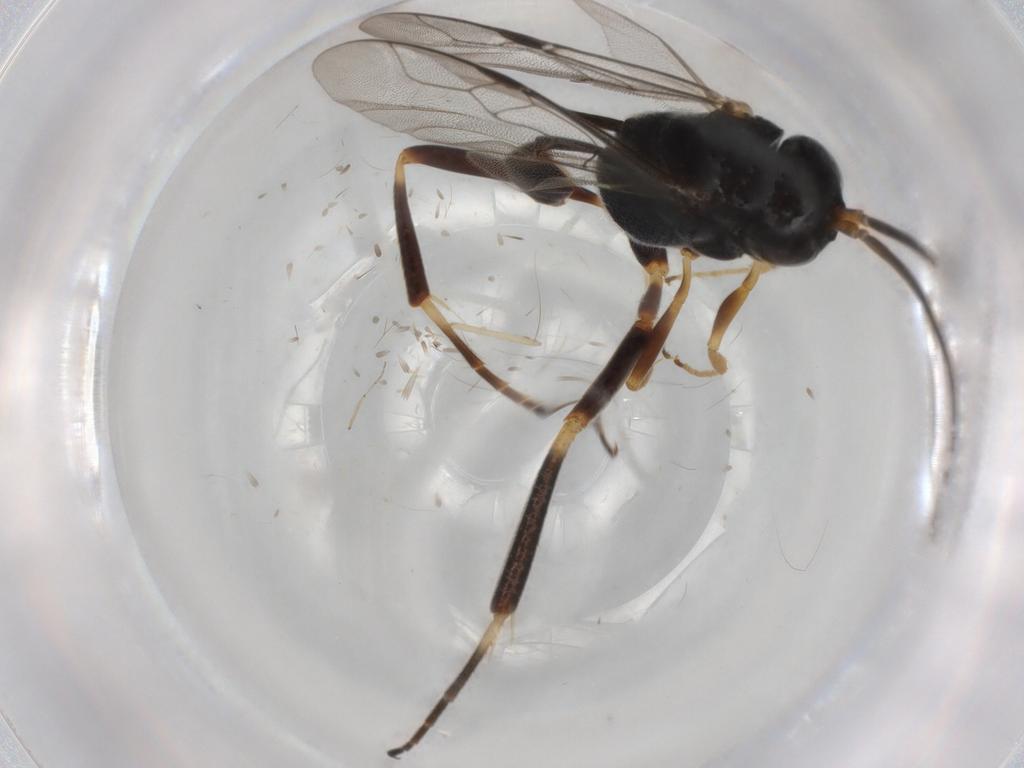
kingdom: Animalia
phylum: Arthropoda
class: Insecta
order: Hymenoptera
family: Evaniidae
